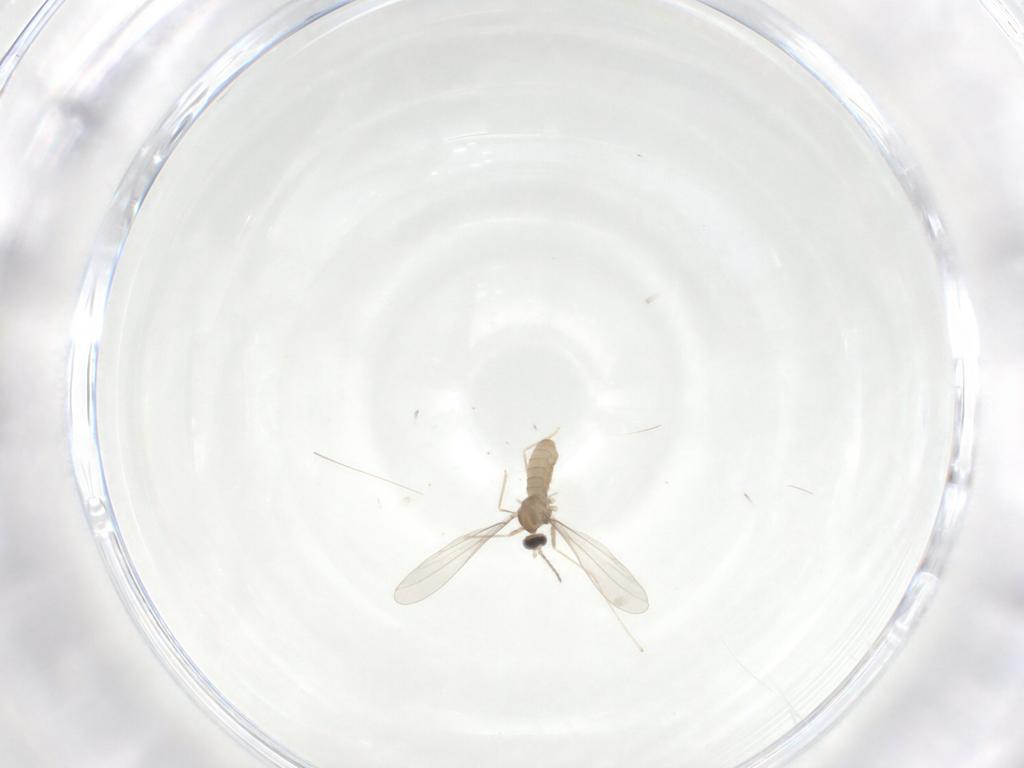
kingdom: Animalia
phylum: Arthropoda
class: Insecta
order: Diptera
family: Cecidomyiidae
